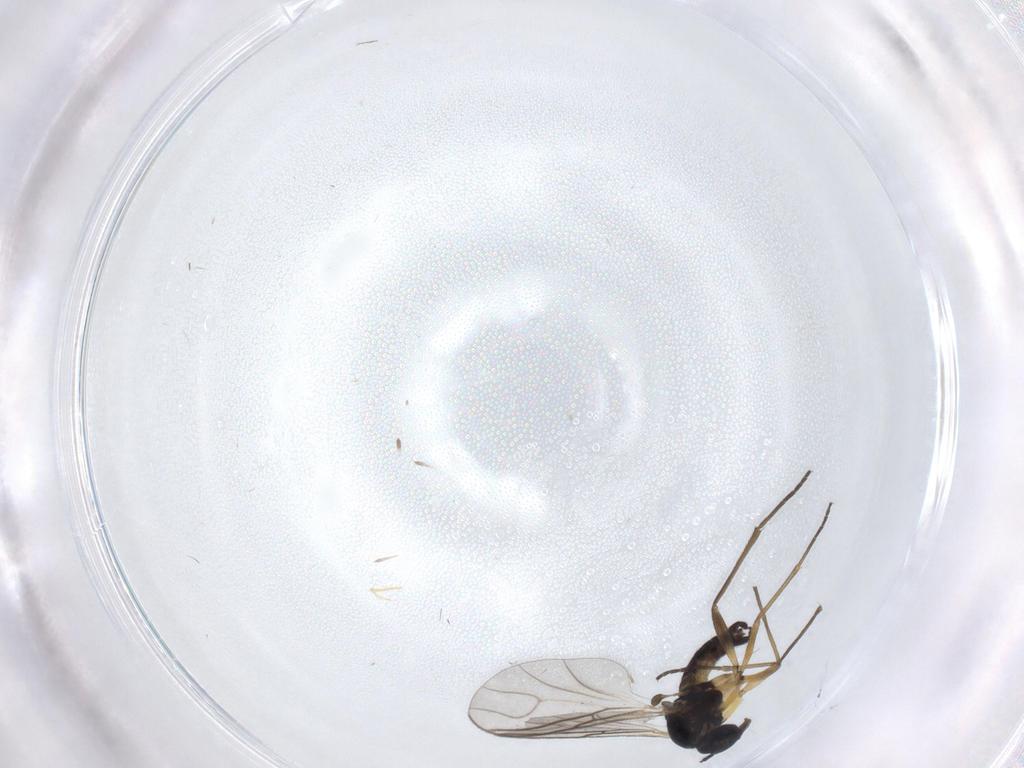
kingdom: Animalia
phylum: Arthropoda
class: Insecta
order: Diptera
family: Sciaridae
